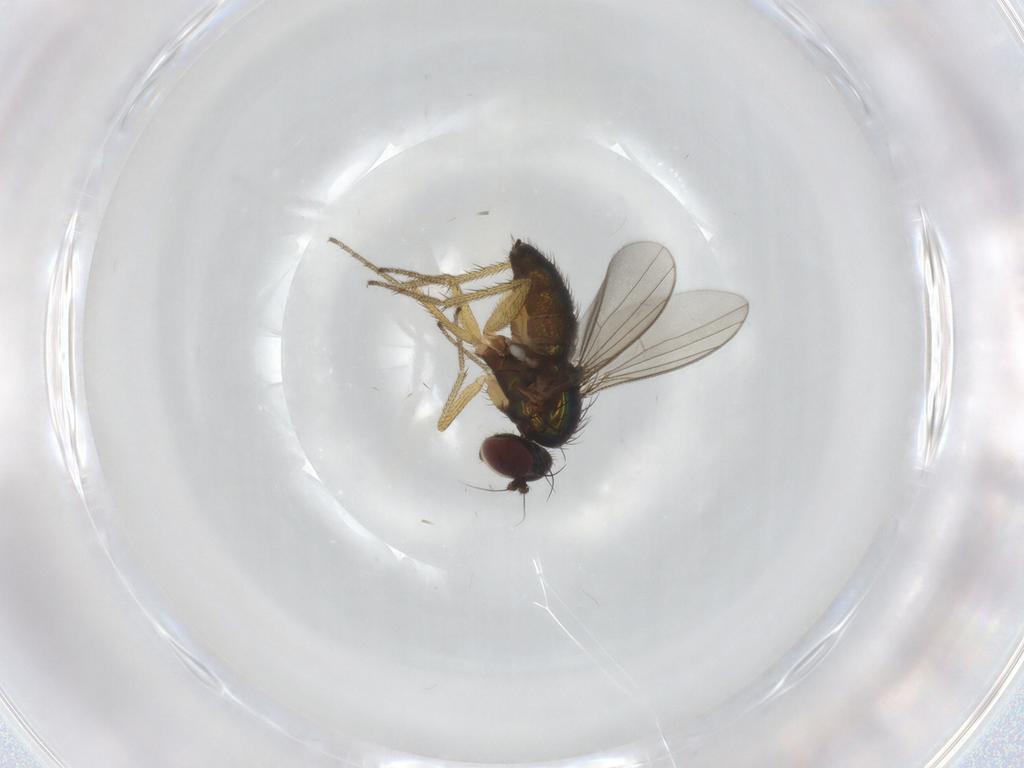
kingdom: Animalia
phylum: Arthropoda
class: Insecta
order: Diptera
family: Dolichopodidae
